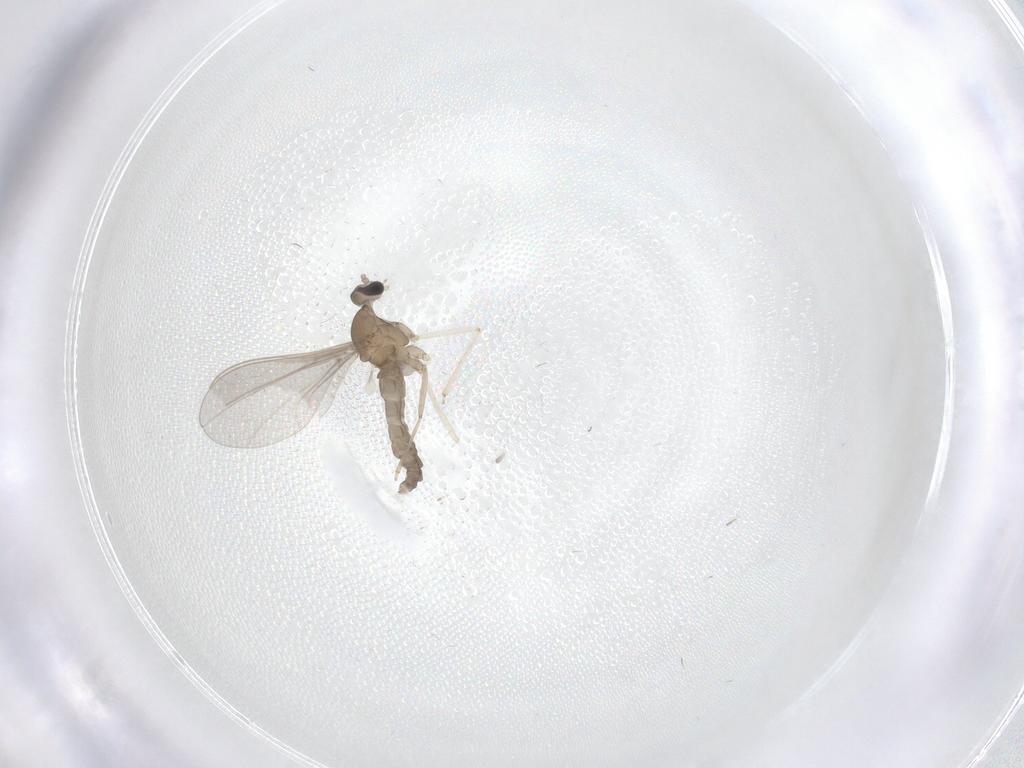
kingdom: Animalia
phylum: Arthropoda
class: Insecta
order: Diptera
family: Cecidomyiidae
